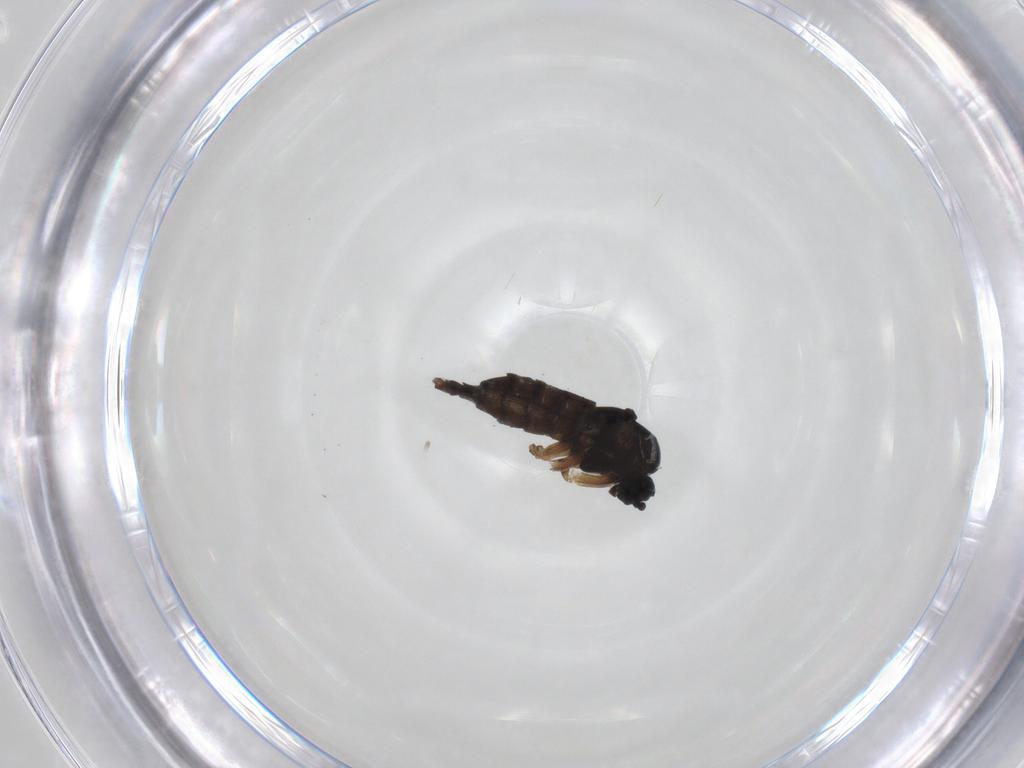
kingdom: Animalia
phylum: Arthropoda
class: Insecta
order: Diptera
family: Sciaridae
